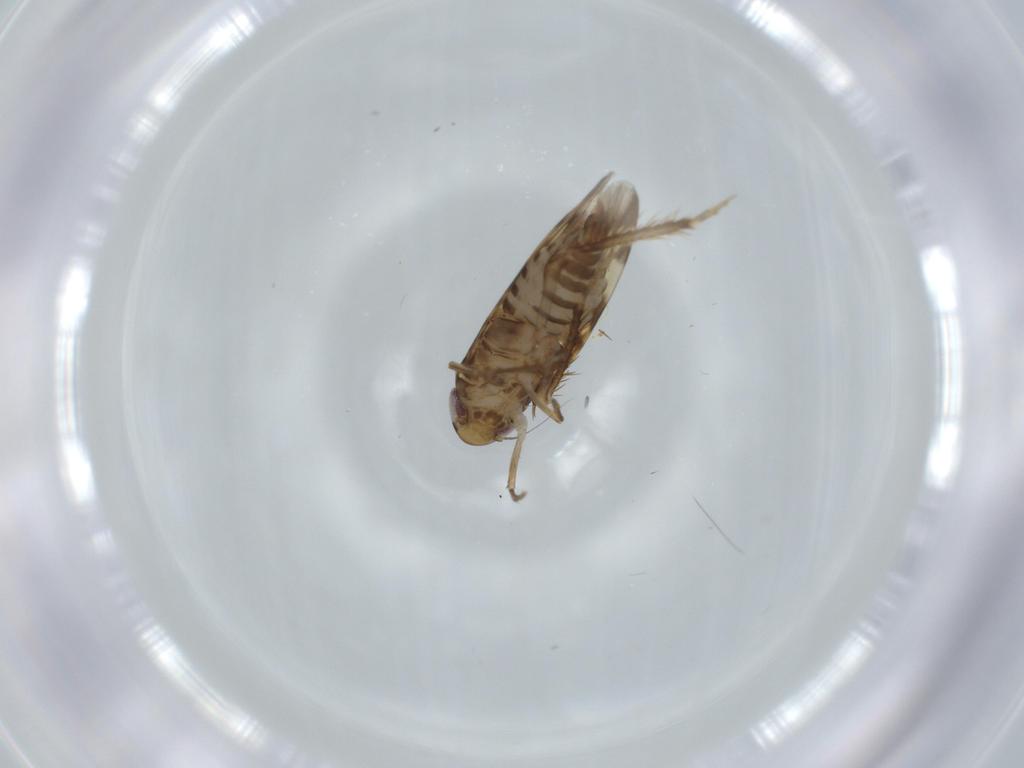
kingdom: Animalia
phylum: Arthropoda
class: Insecta
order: Hemiptera
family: Cicadellidae
